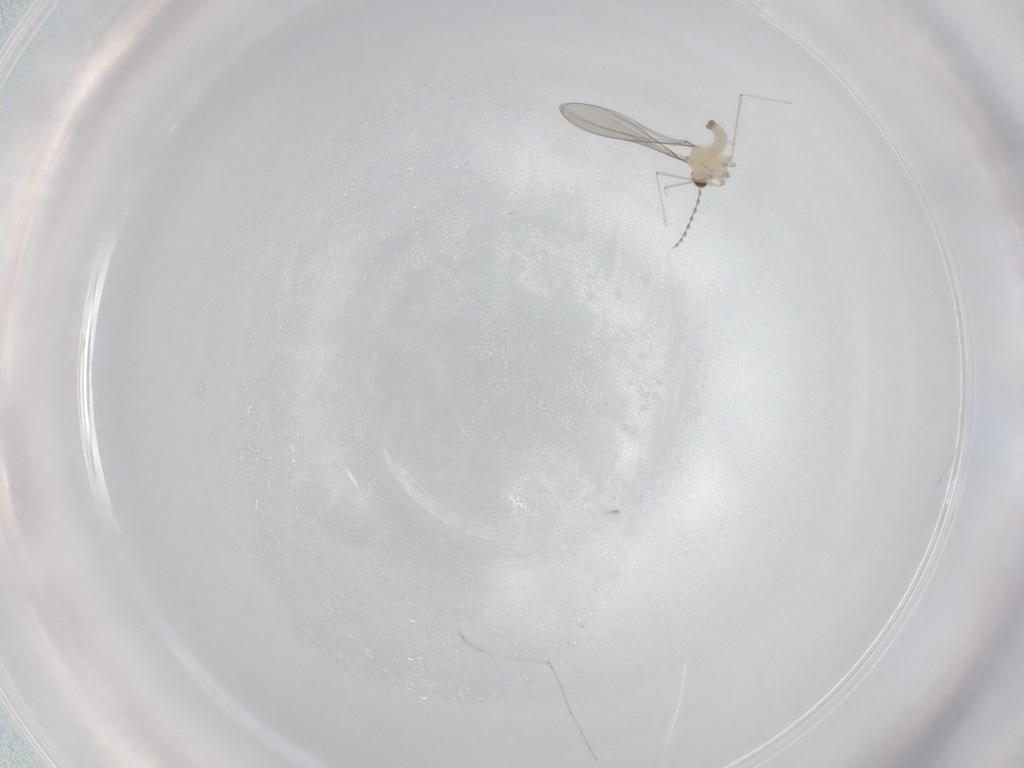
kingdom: Animalia
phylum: Arthropoda
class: Insecta
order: Diptera
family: Cecidomyiidae
